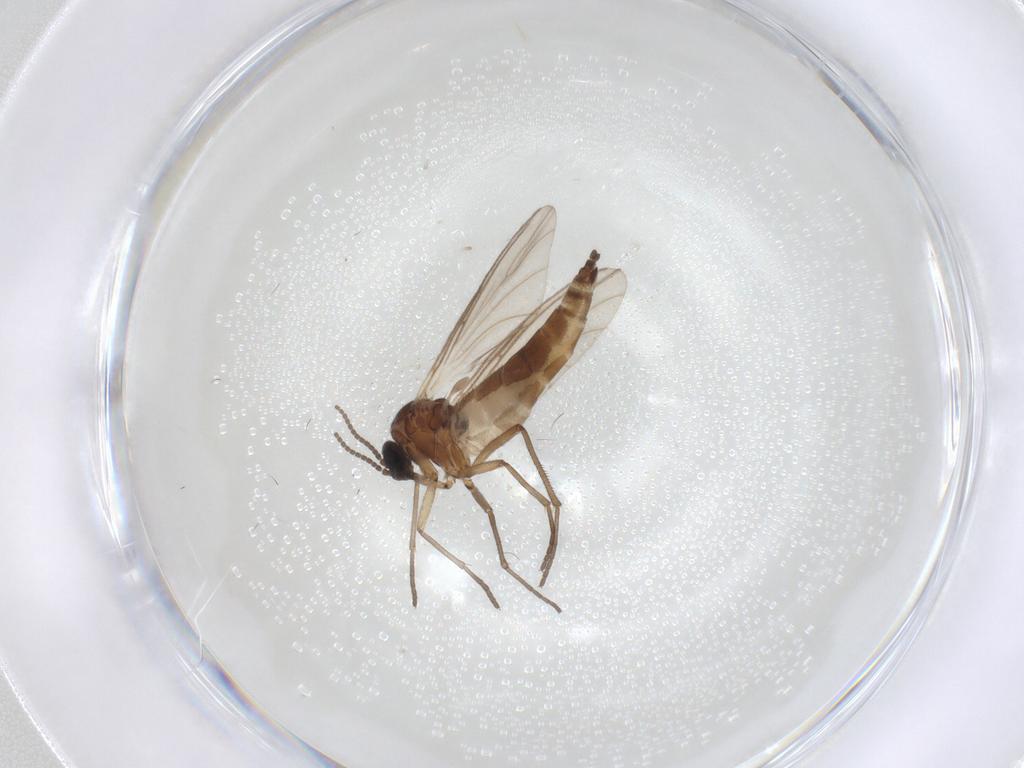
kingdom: Animalia
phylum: Arthropoda
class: Insecta
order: Diptera
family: Sciaridae
